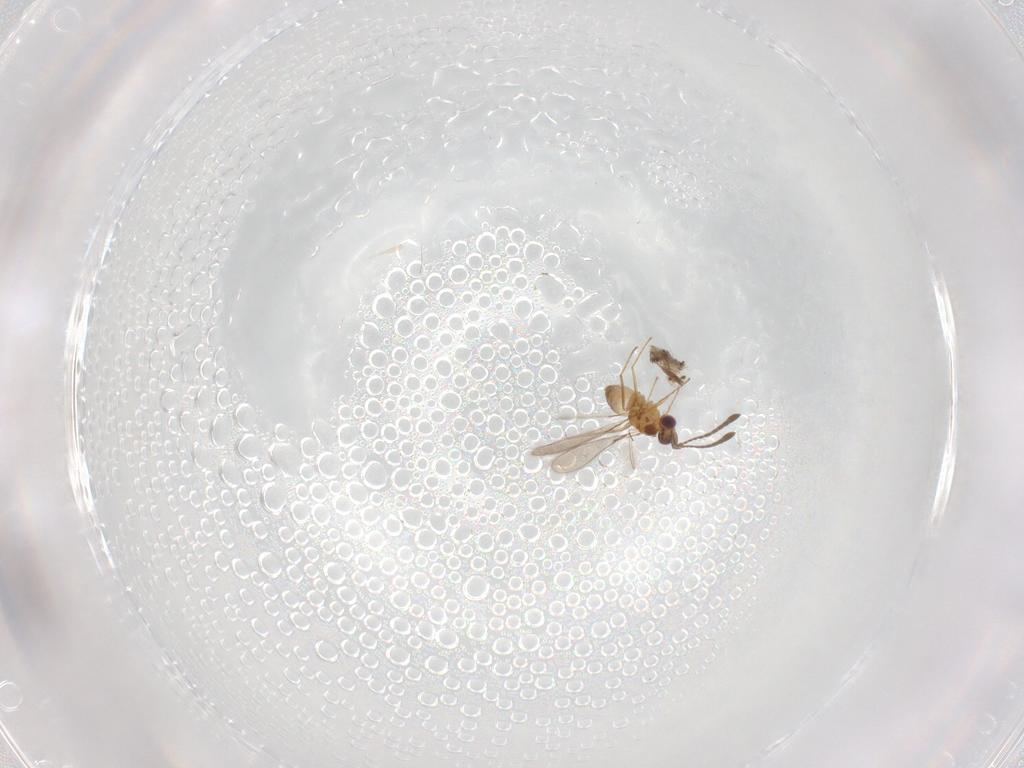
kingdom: Animalia
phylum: Arthropoda
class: Insecta
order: Hymenoptera
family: Mymaridae
